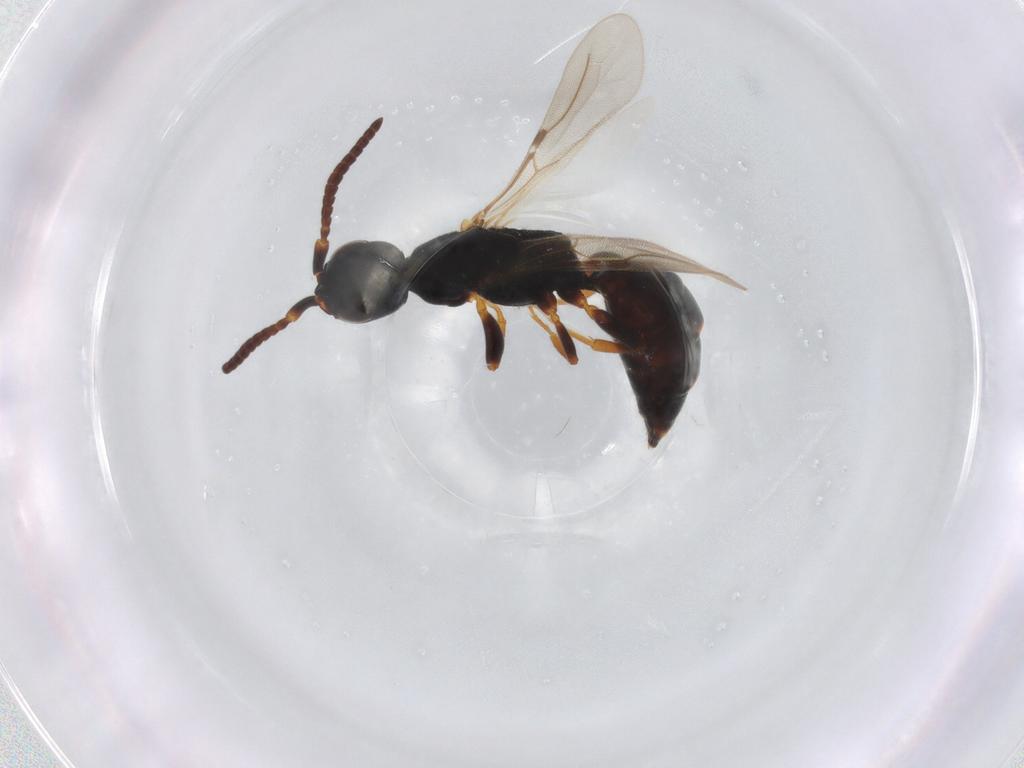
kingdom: Animalia
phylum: Arthropoda
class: Insecta
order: Hymenoptera
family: Bethylidae
